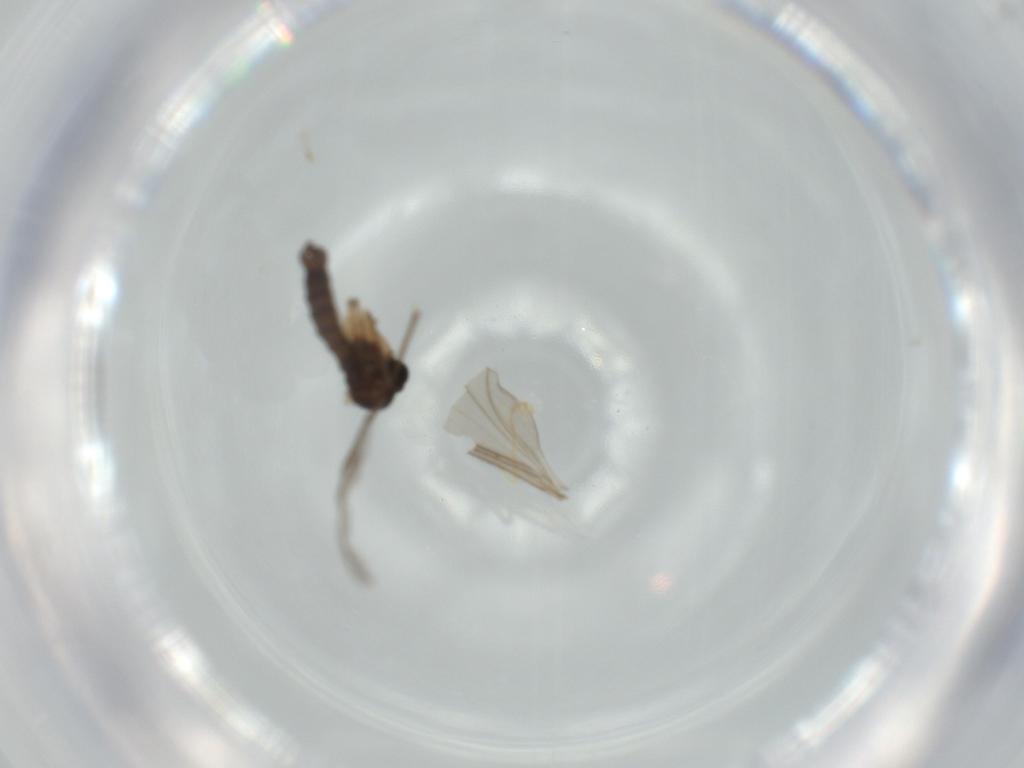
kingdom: Animalia
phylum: Arthropoda
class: Insecta
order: Diptera
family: Sciaridae
